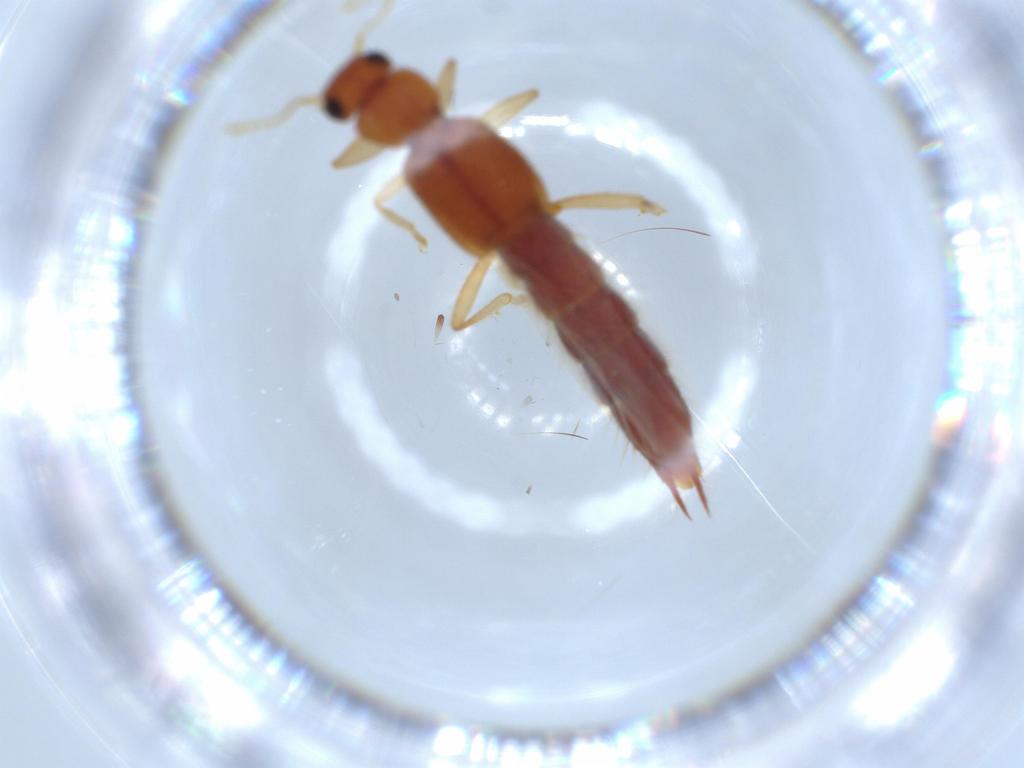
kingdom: Animalia
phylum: Arthropoda
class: Insecta
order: Coleoptera
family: Staphylinidae
